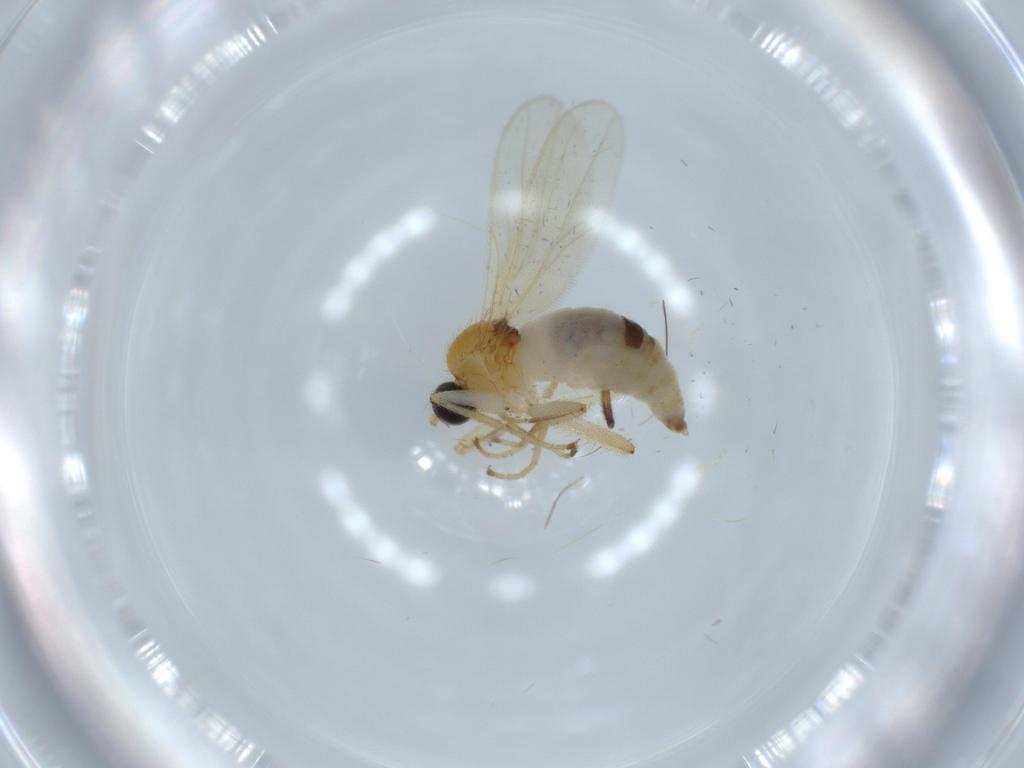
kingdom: Animalia
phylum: Arthropoda
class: Insecta
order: Diptera
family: Hybotidae
